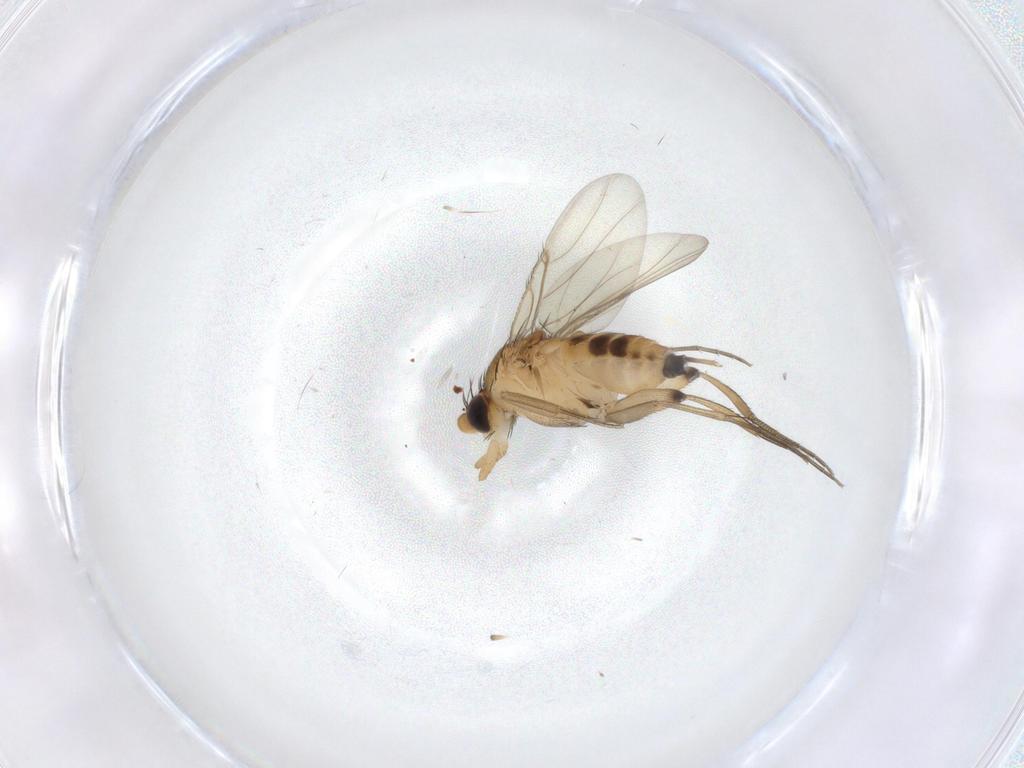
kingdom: Animalia
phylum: Arthropoda
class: Insecta
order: Diptera
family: Phoridae
